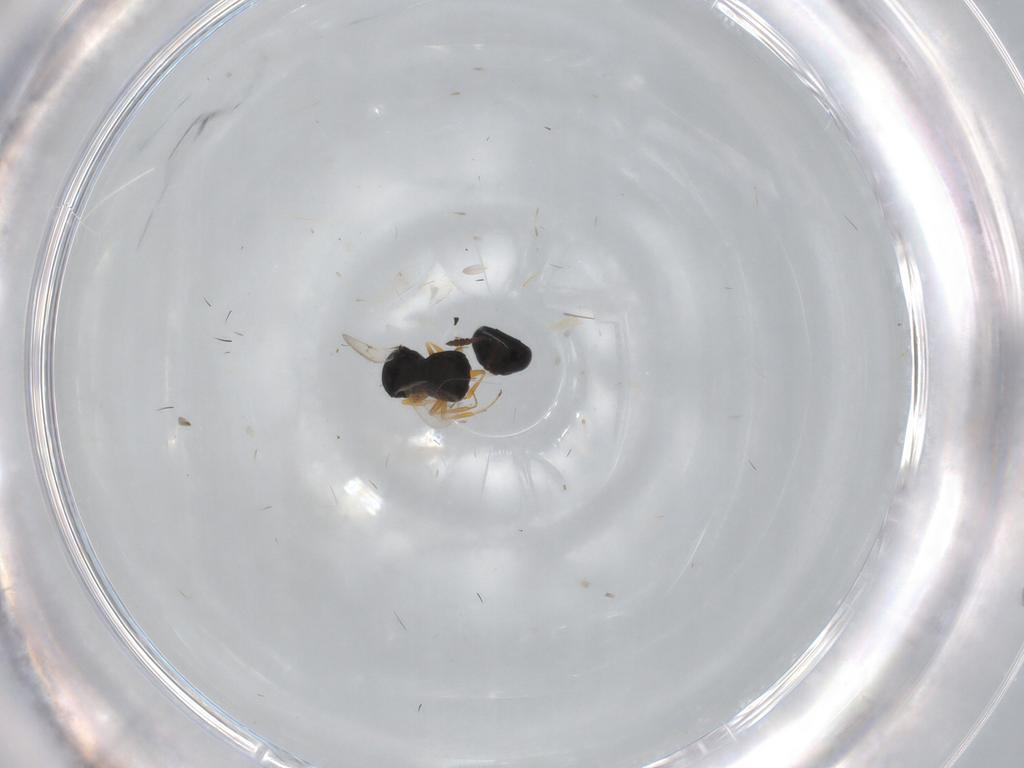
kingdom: Animalia
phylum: Arthropoda
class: Insecta
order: Hymenoptera
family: Scelionidae
